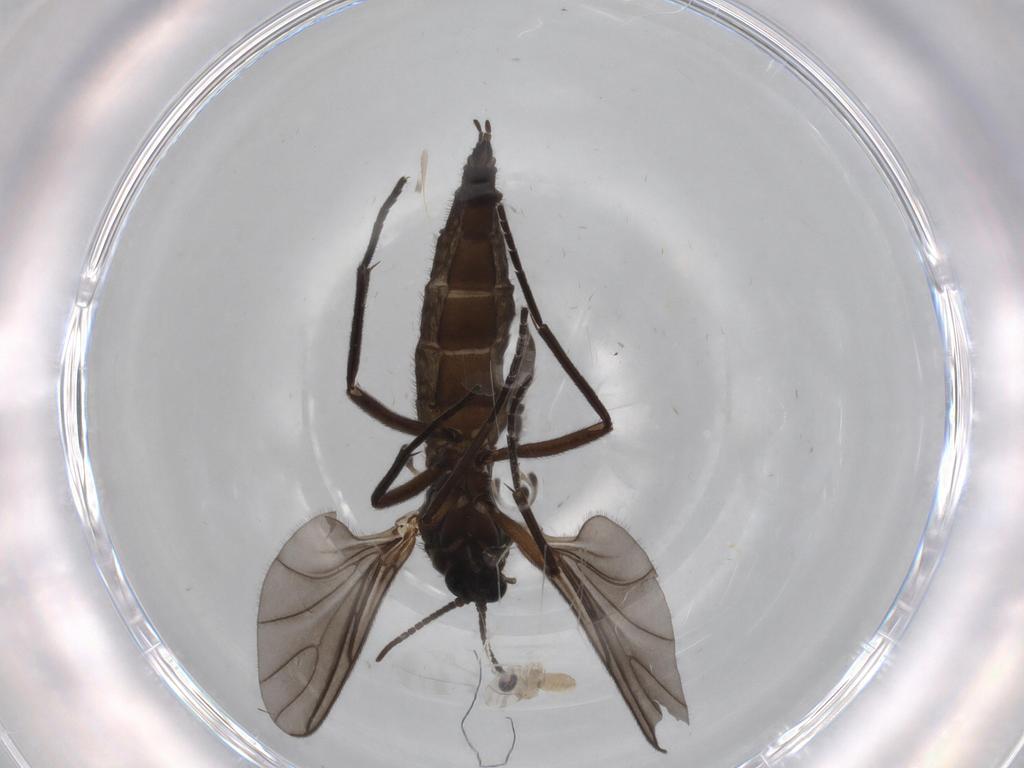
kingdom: Animalia
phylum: Arthropoda
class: Insecta
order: Diptera
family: Sciaridae
